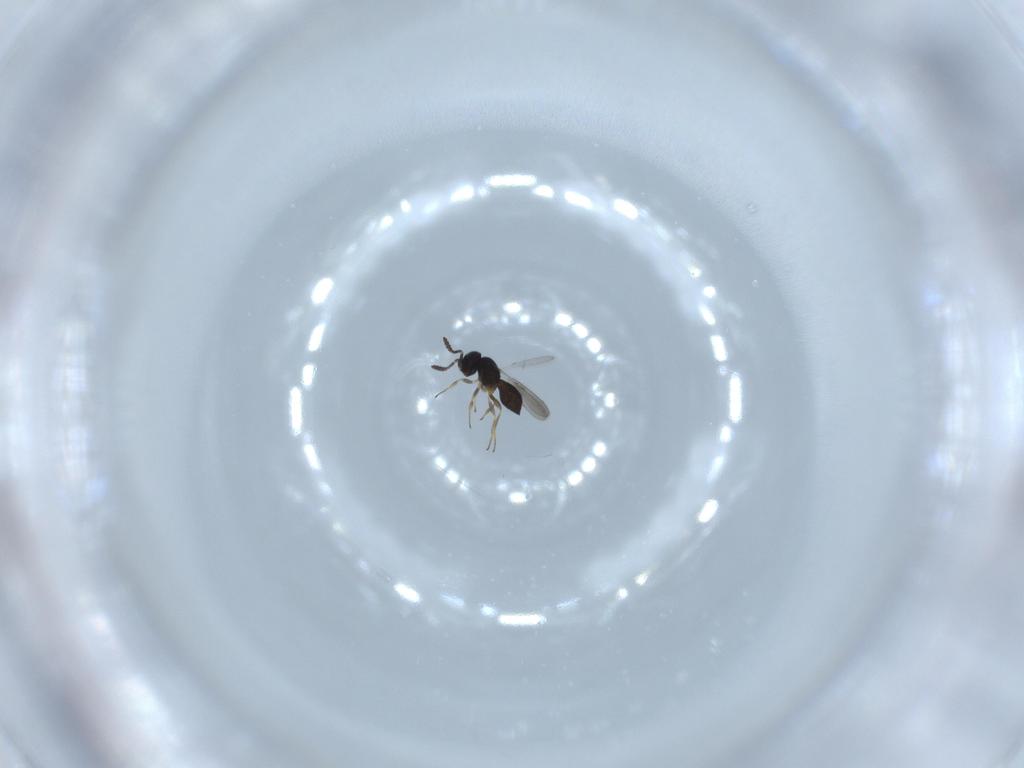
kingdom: Animalia
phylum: Arthropoda
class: Insecta
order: Hymenoptera
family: Scelionidae
